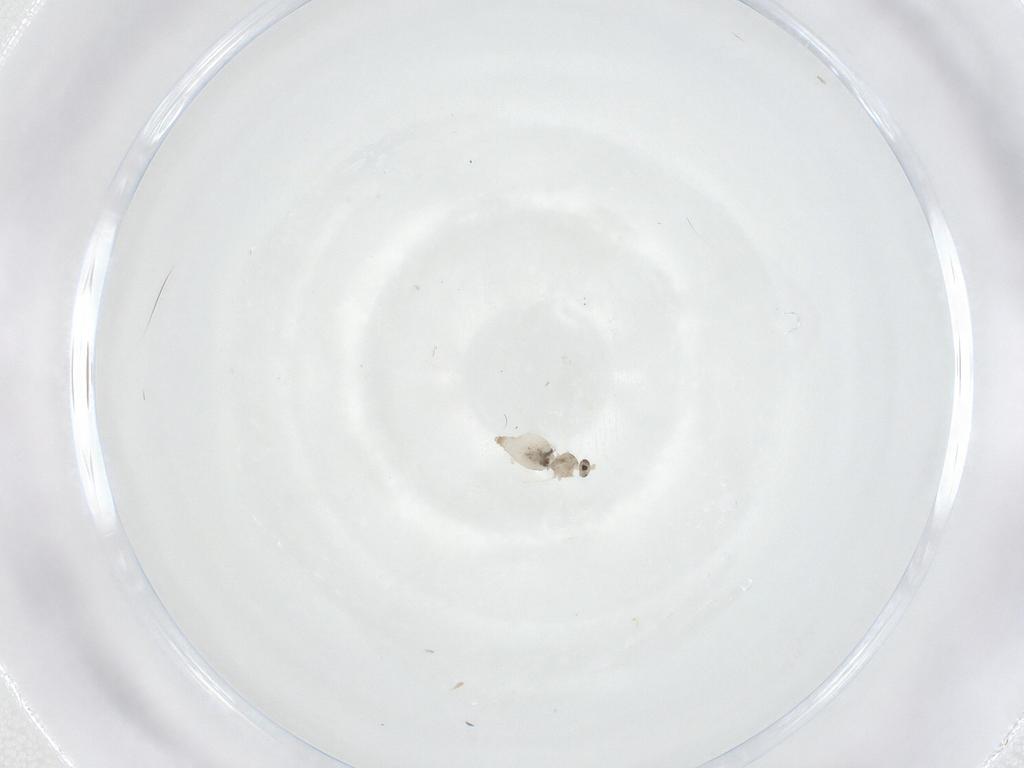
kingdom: Animalia
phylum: Arthropoda
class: Insecta
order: Diptera
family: Cecidomyiidae
